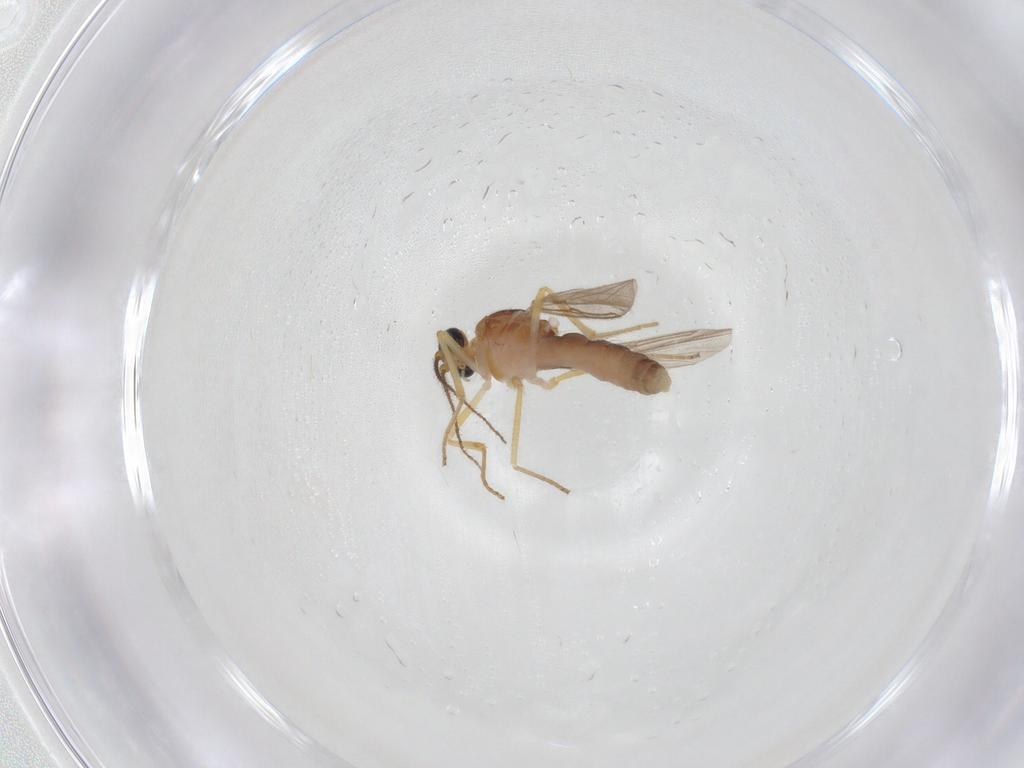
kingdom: Animalia
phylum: Arthropoda
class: Insecta
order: Diptera
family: Ceratopogonidae
